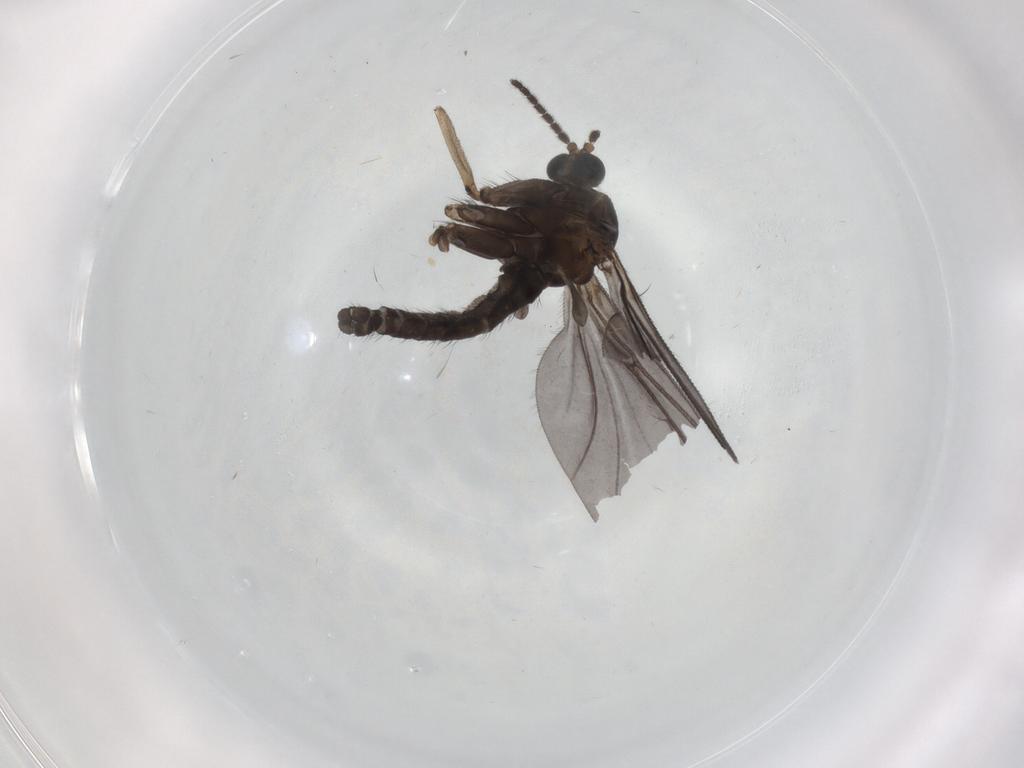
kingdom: Animalia
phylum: Arthropoda
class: Insecta
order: Diptera
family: Sciaridae
